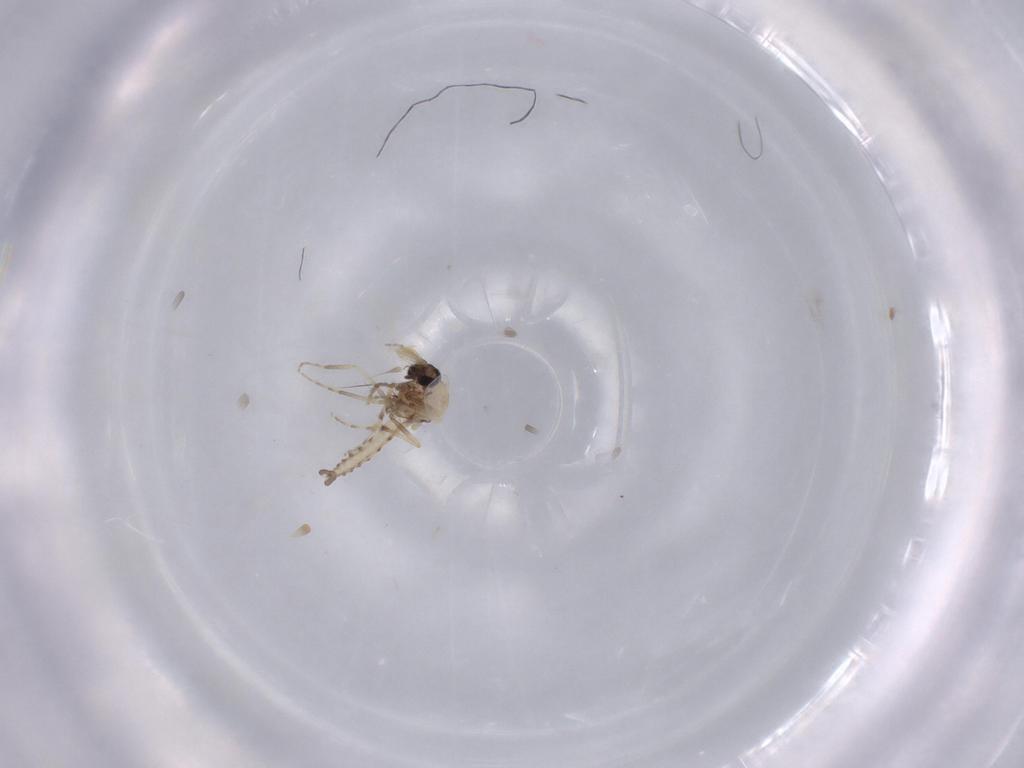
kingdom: Animalia
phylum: Arthropoda
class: Insecta
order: Diptera
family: Ceratopogonidae
